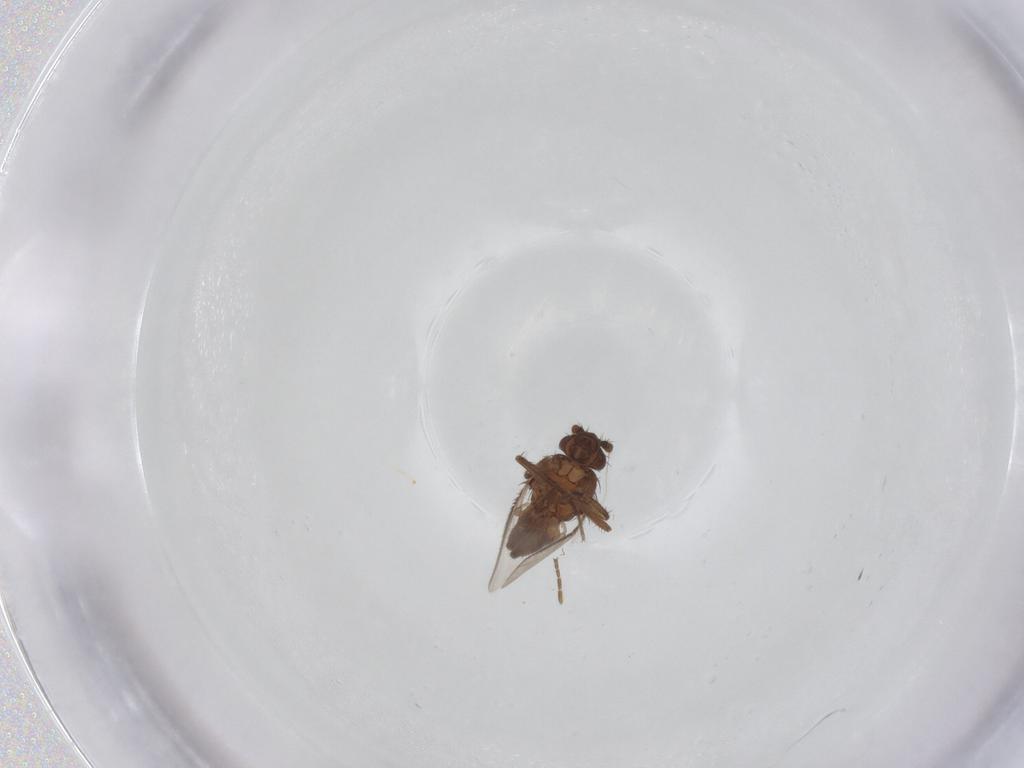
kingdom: Animalia
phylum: Arthropoda
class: Insecta
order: Diptera
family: Sphaeroceridae
